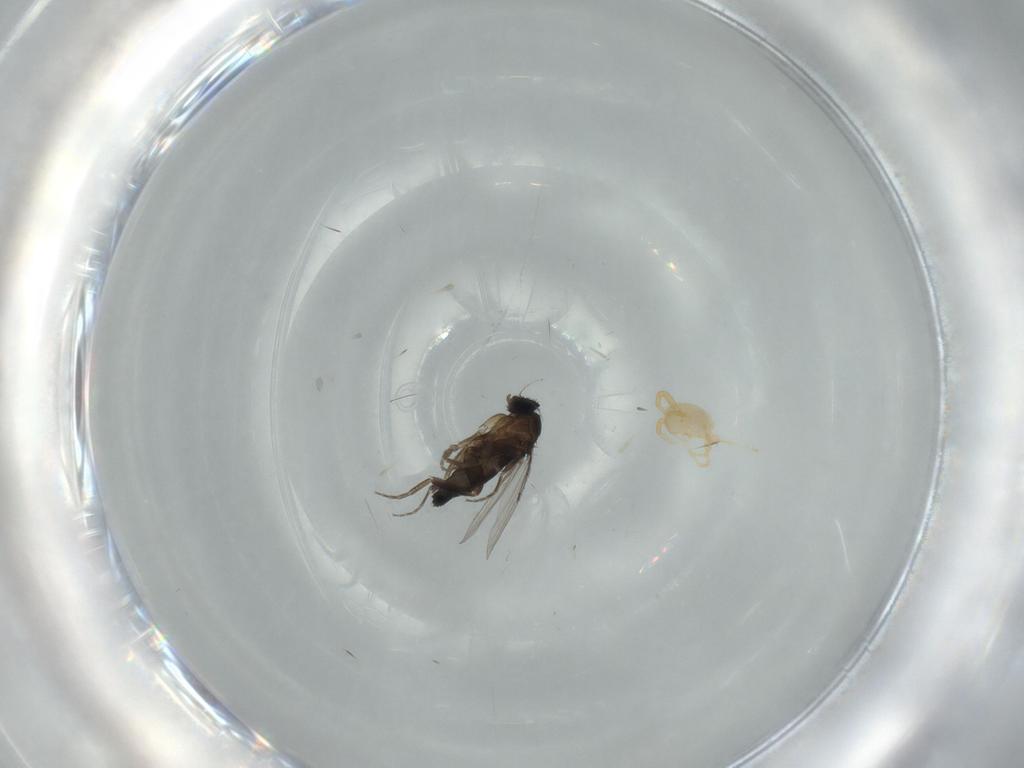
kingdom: Animalia
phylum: Arthropoda
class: Insecta
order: Diptera
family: Phoridae
